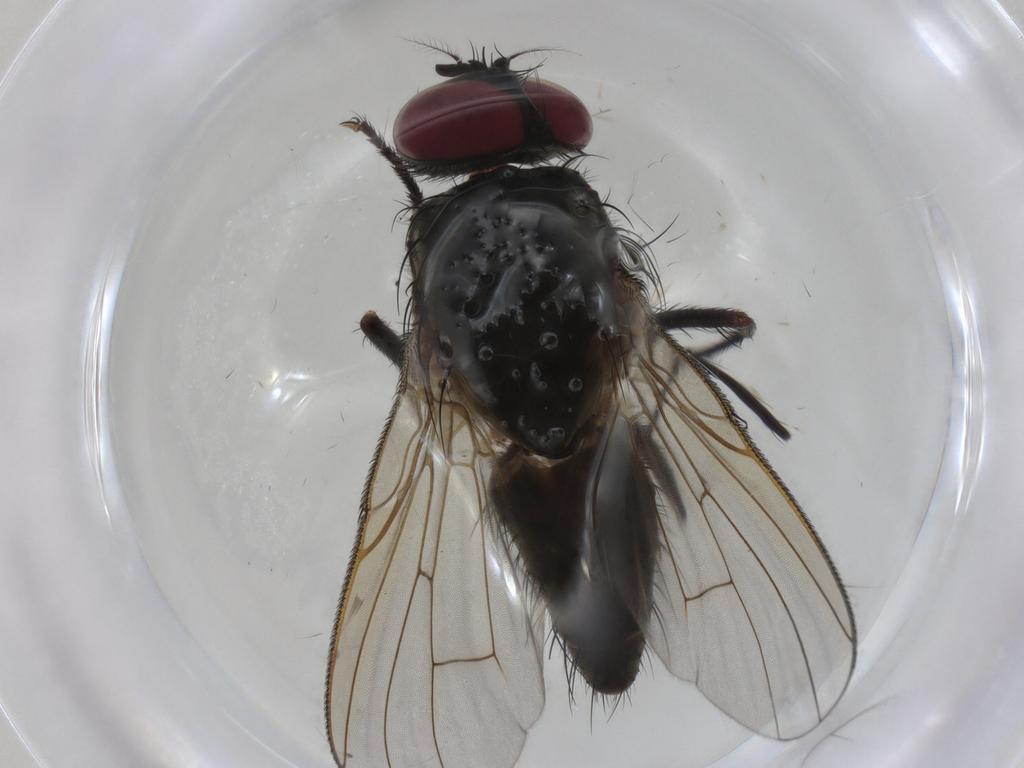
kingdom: Animalia
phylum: Arthropoda
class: Insecta
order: Diptera
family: Muscidae
